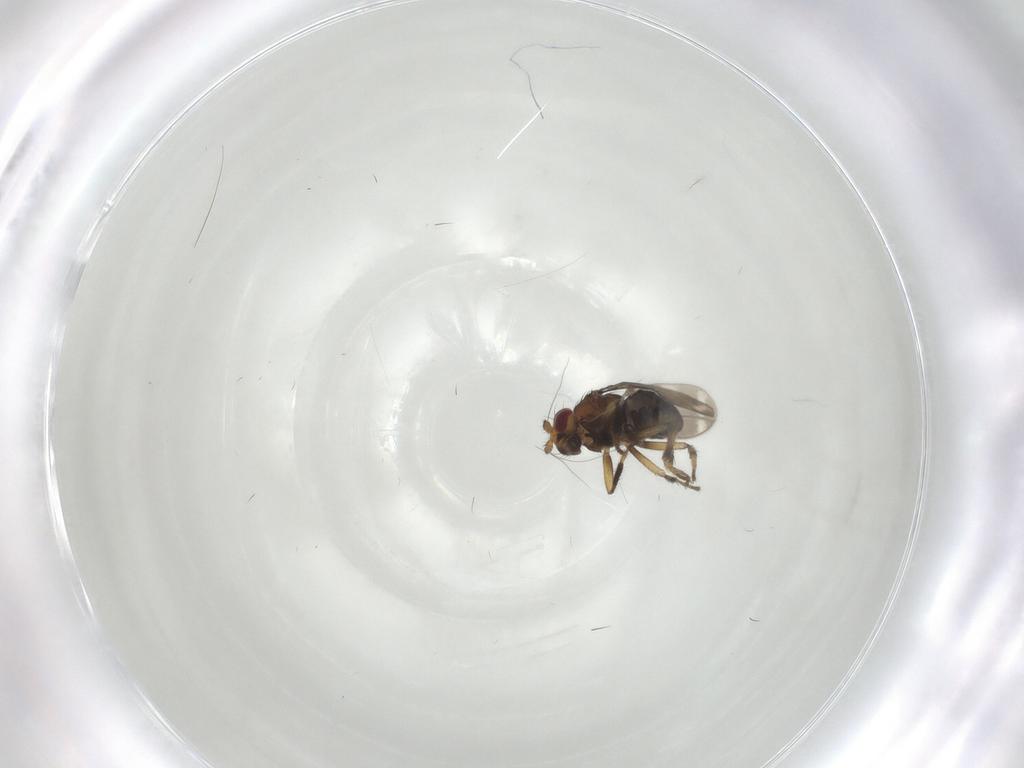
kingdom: Animalia
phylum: Arthropoda
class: Insecta
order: Diptera
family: Sphaeroceridae
